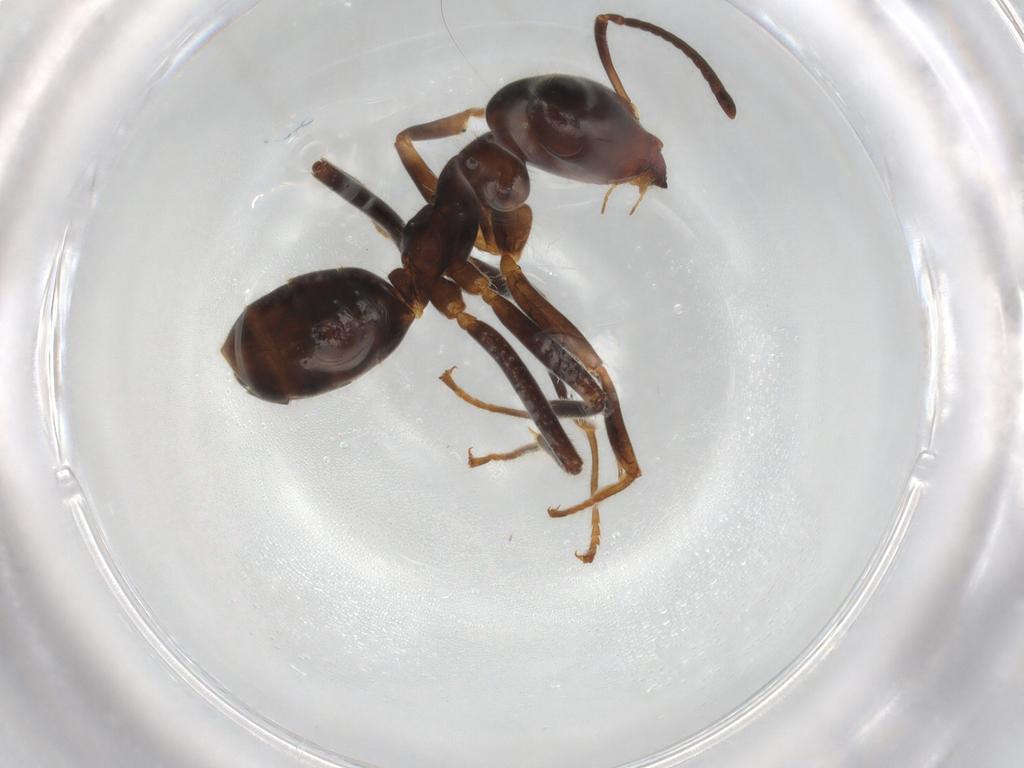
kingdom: Animalia
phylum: Arthropoda
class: Insecta
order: Hymenoptera
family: Formicidae
